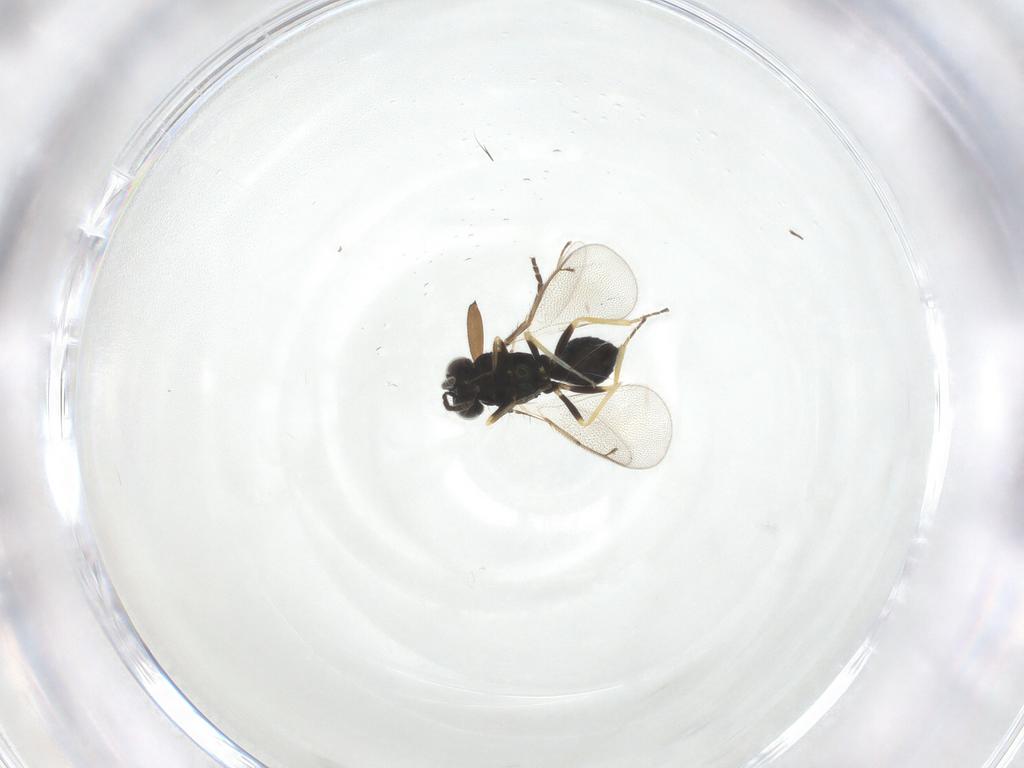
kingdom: Animalia
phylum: Arthropoda
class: Insecta
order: Hymenoptera
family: Eulophidae
